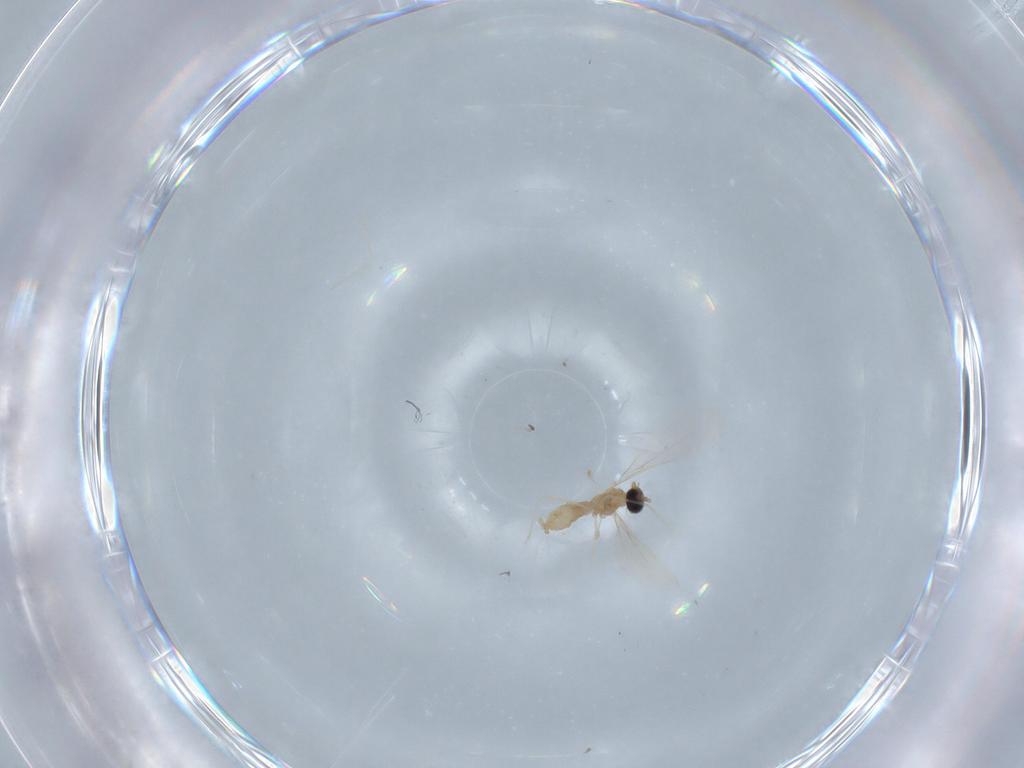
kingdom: Animalia
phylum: Arthropoda
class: Insecta
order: Diptera
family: Cecidomyiidae
